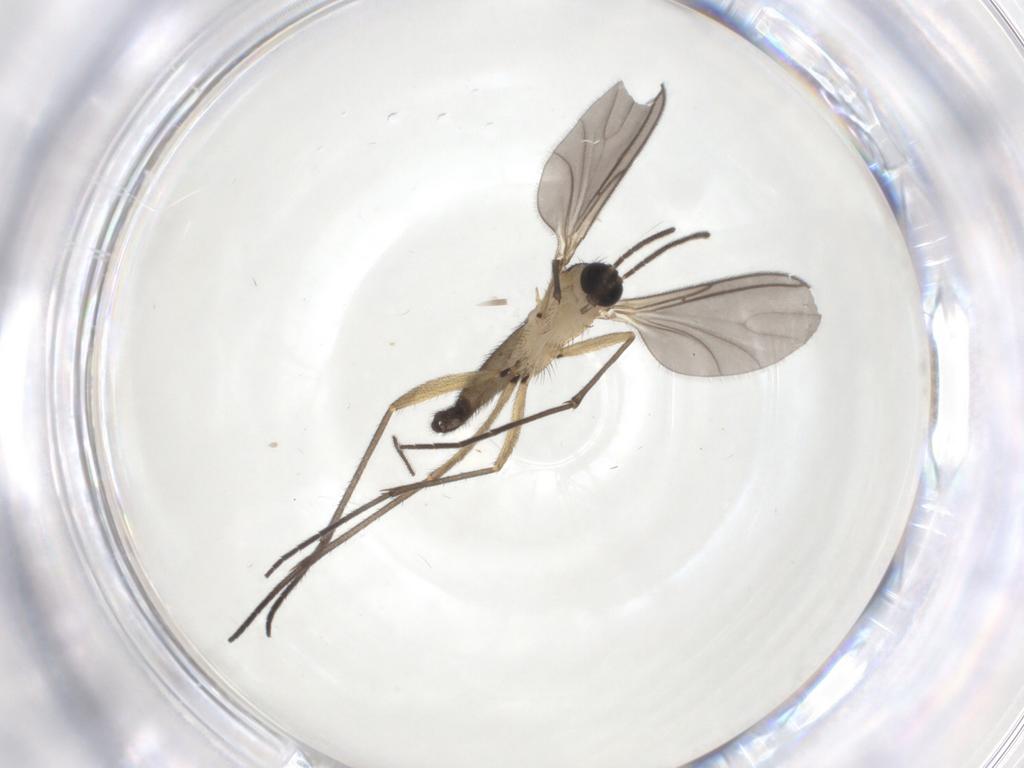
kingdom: Animalia
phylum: Arthropoda
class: Insecta
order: Diptera
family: Sciaridae
